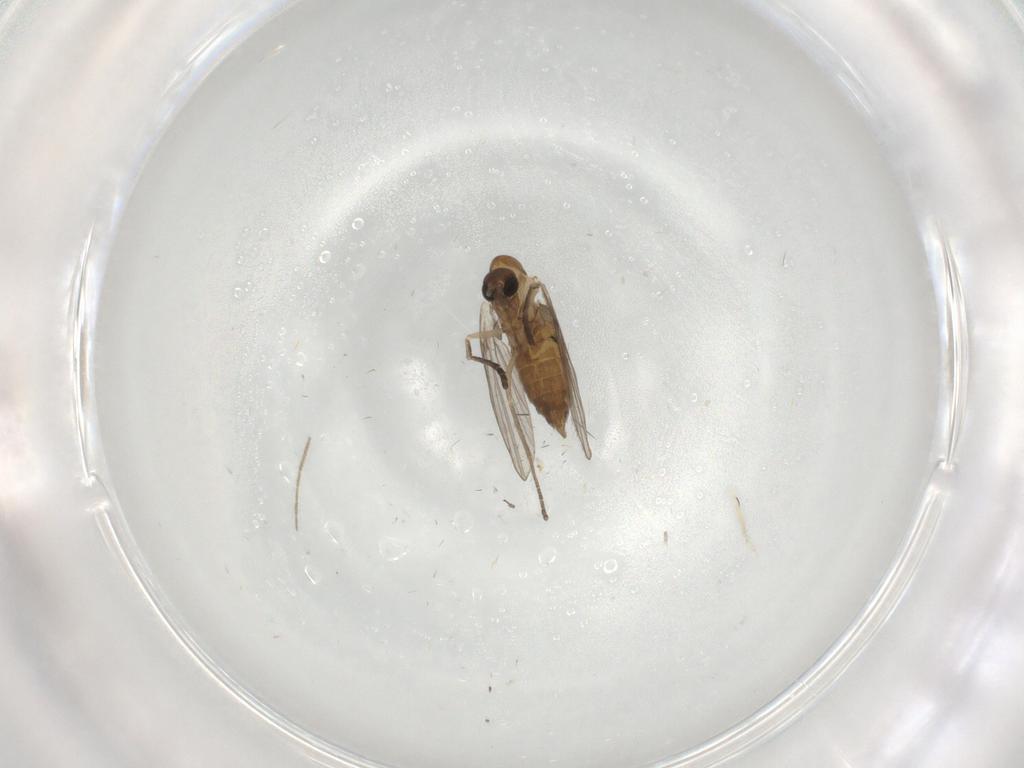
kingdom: Animalia
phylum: Arthropoda
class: Insecta
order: Diptera
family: Psychodidae
